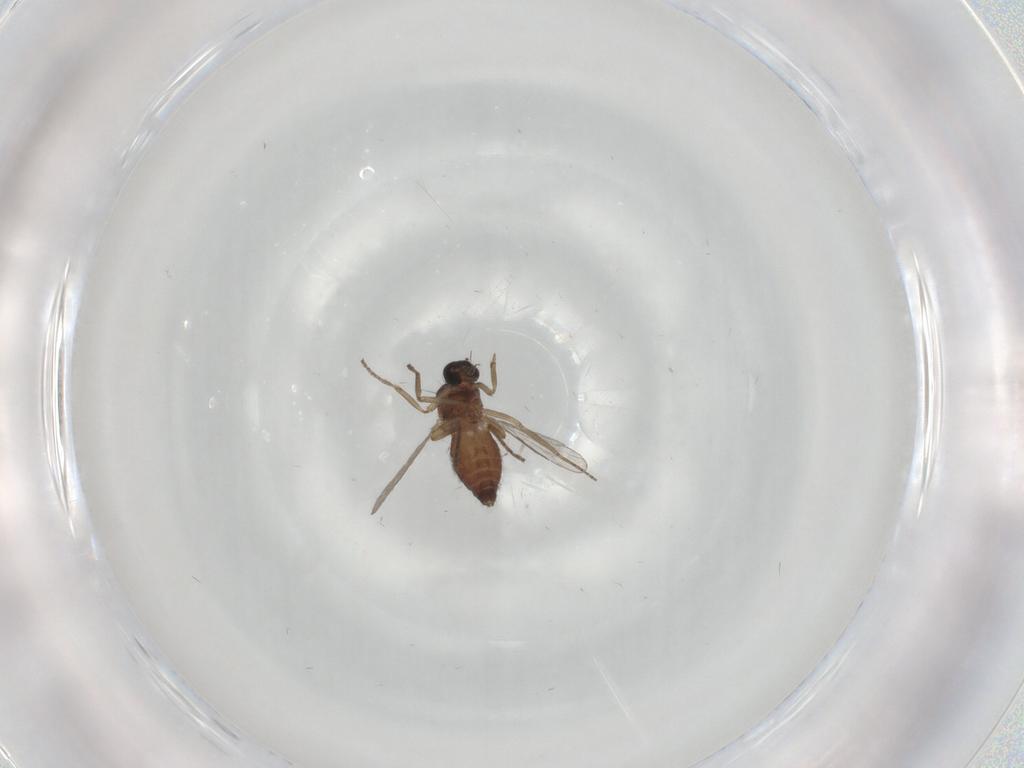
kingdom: Animalia
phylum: Arthropoda
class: Insecta
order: Diptera
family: Ceratopogonidae
